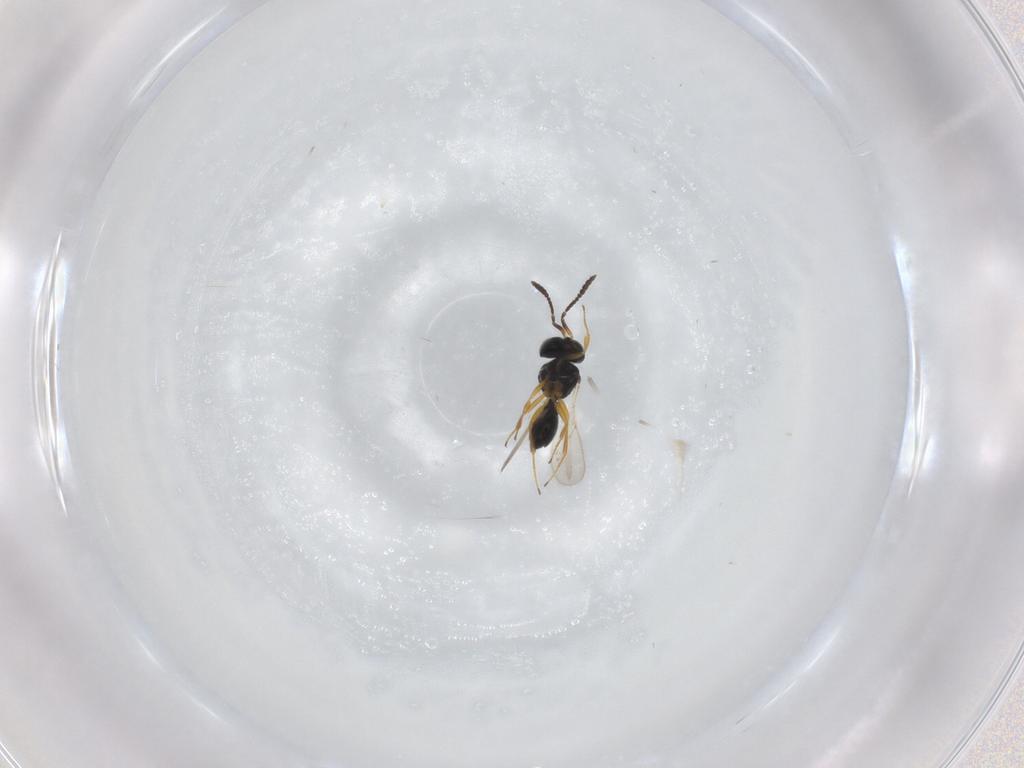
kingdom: Animalia
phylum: Arthropoda
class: Insecta
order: Hymenoptera
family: Scelionidae
